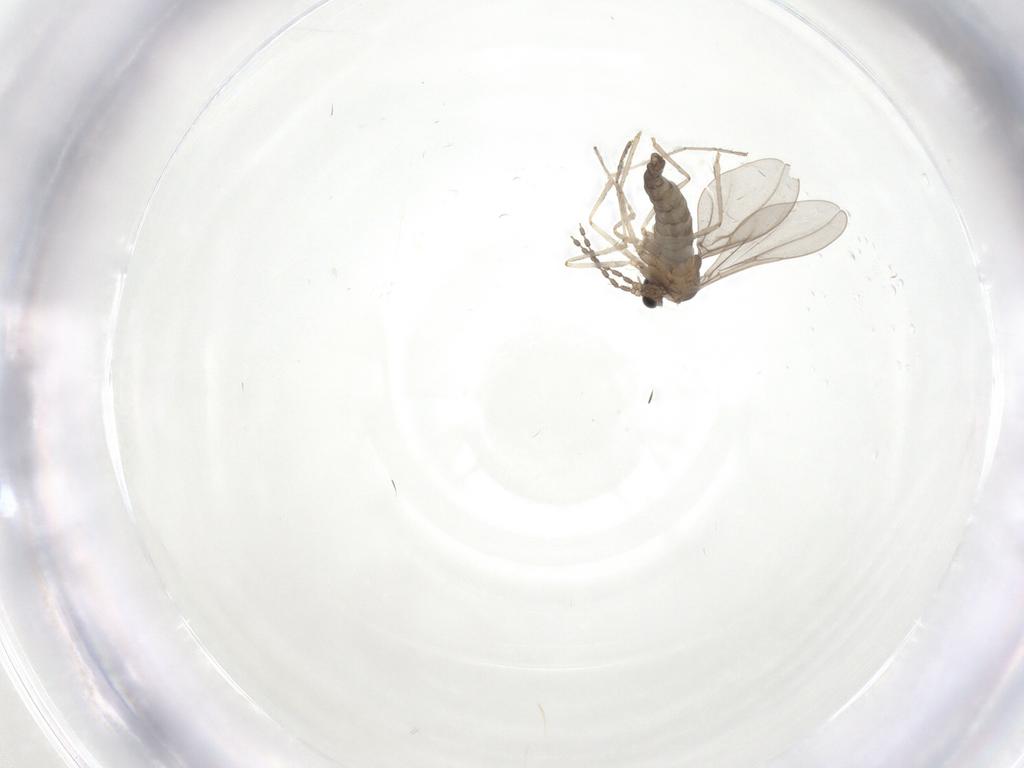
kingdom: Animalia
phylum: Arthropoda
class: Insecta
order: Diptera
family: Cecidomyiidae
